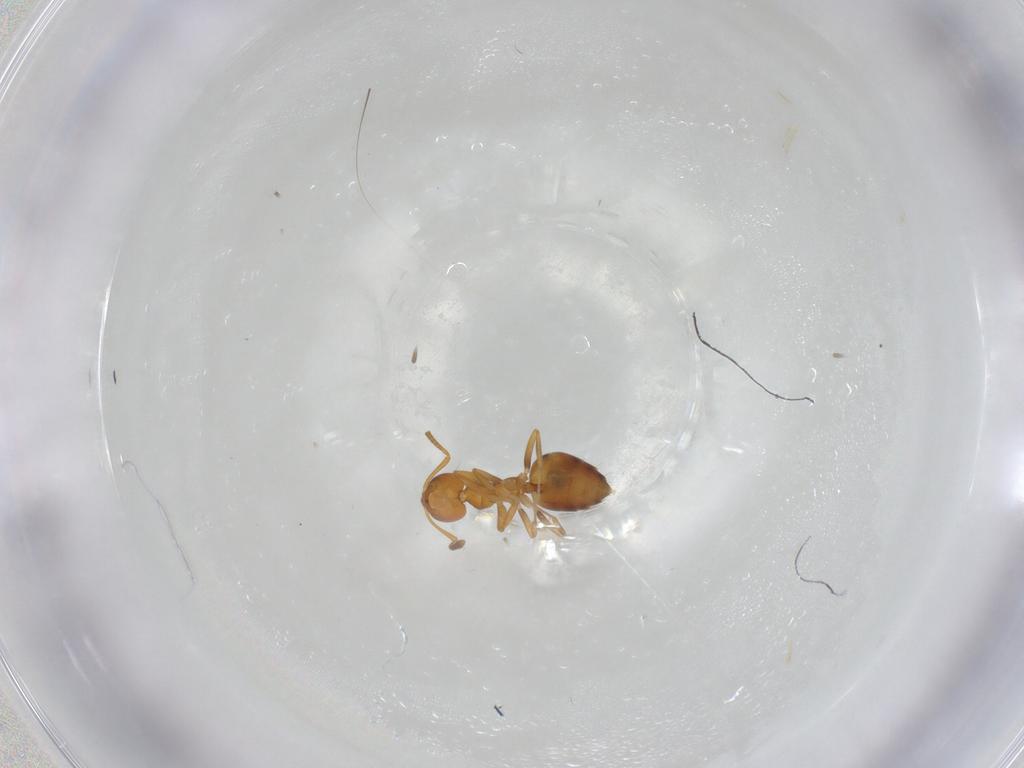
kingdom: Animalia
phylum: Arthropoda
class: Insecta
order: Hymenoptera
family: Formicidae
